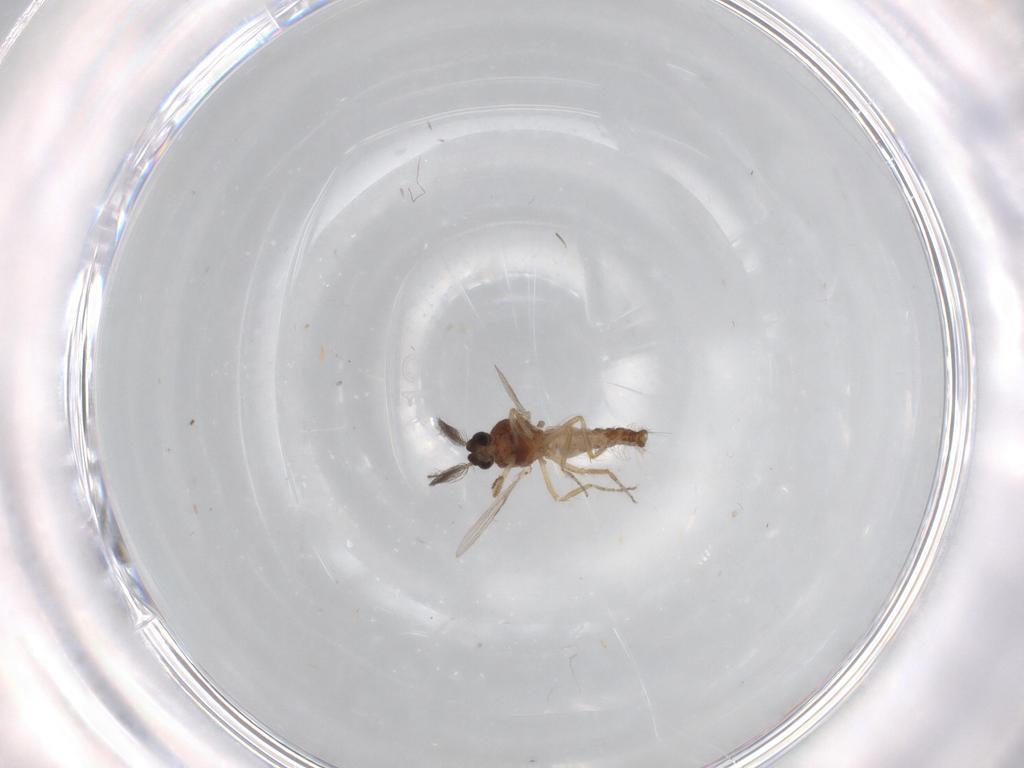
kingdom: Animalia
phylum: Arthropoda
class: Insecta
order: Diptera
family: Ceratopogonidae
